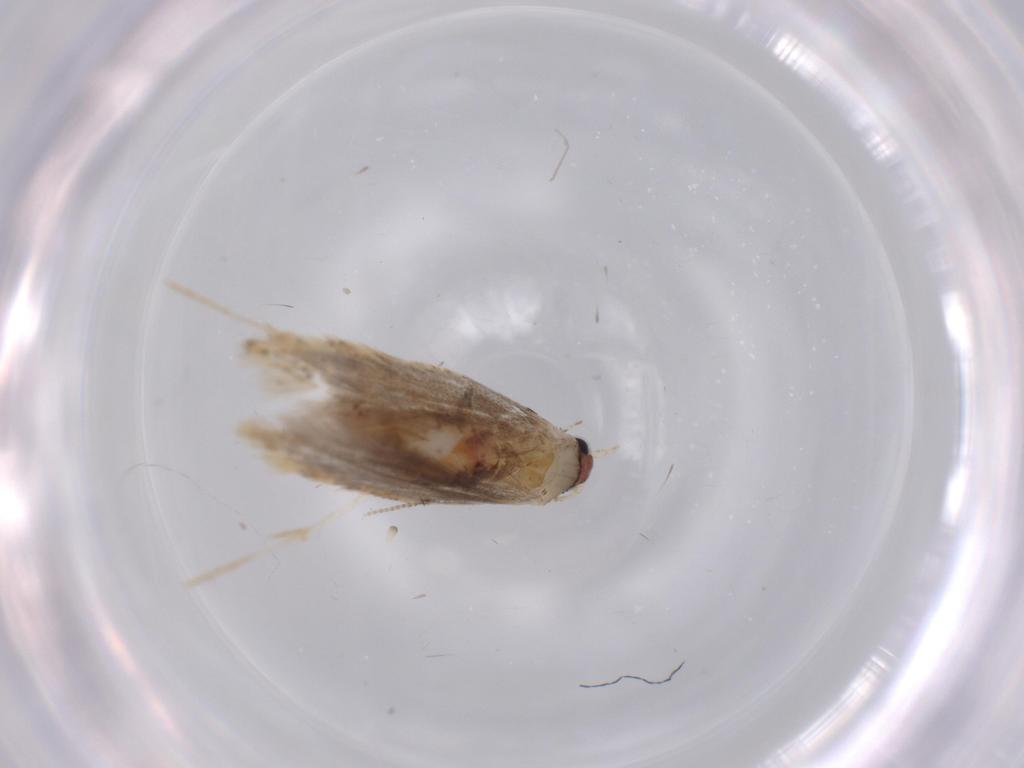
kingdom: Animalia
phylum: Arthropoda
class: Insecta
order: Lepidoptera
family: Tineidae
